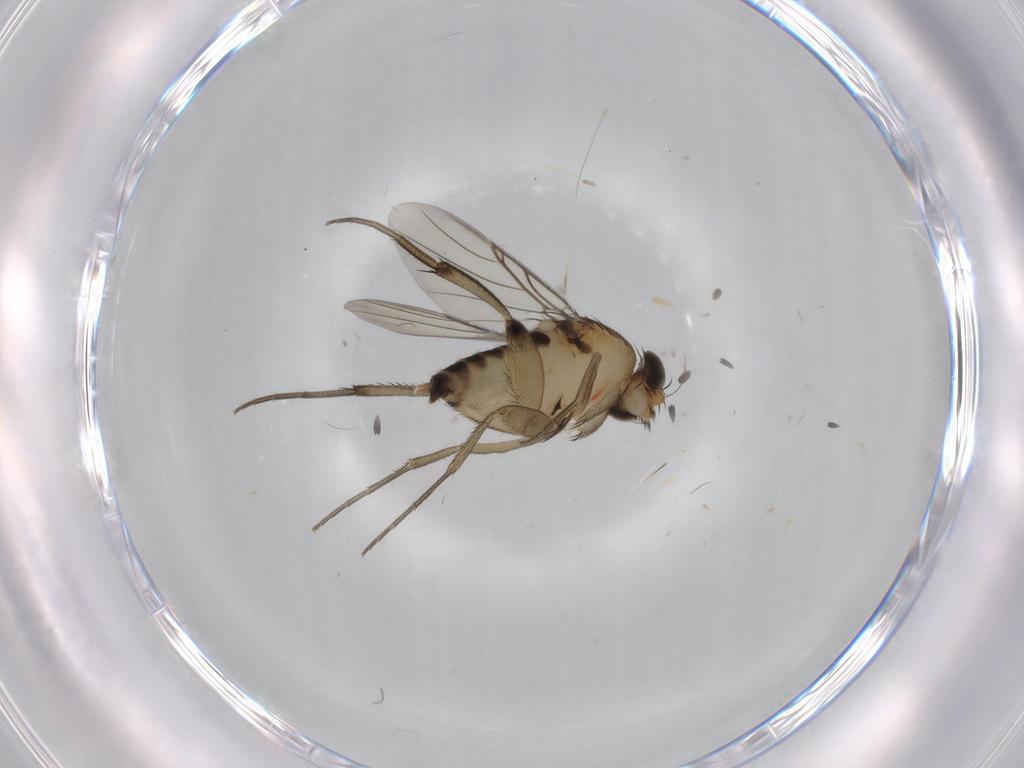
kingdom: Animalia
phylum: Arthropoda
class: Insecta
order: Diptera
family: Phoridae
